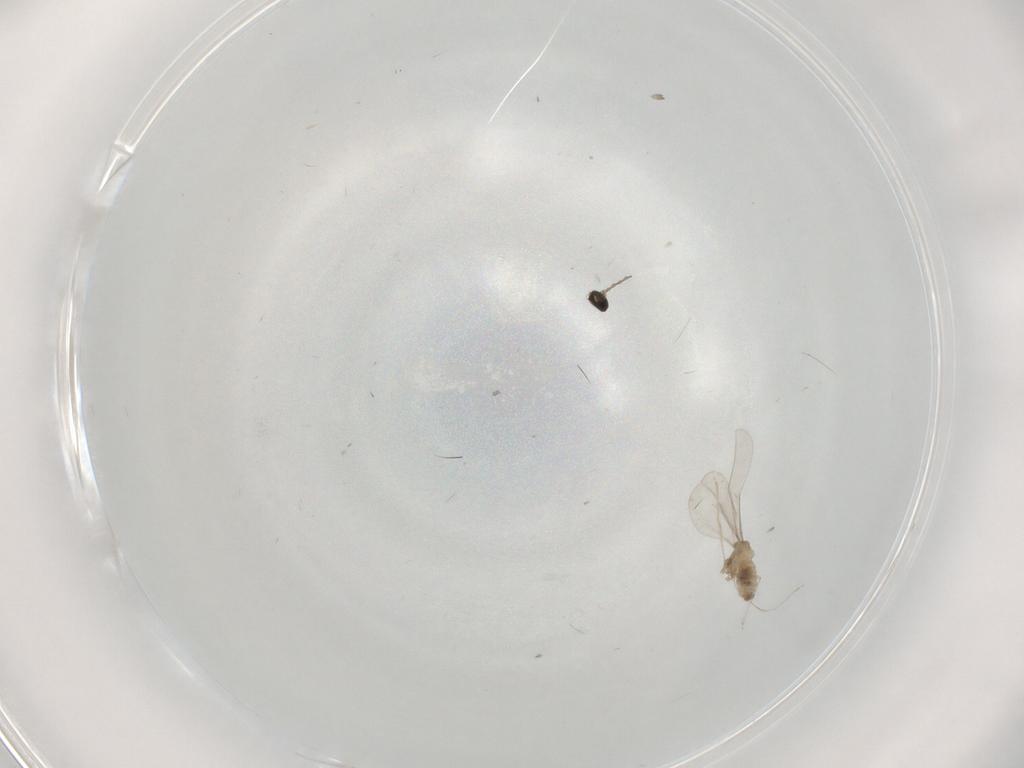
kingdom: Animalia
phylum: Arthropoda
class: Insecta
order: Diptera
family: Cecidomyiidae
